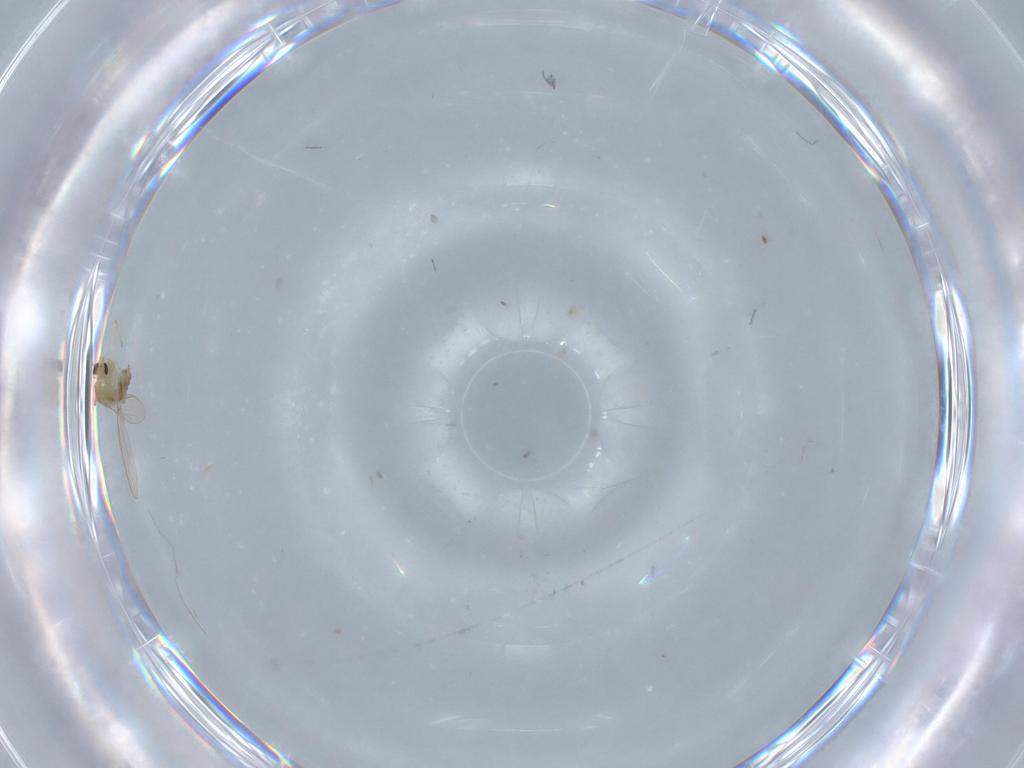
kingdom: Animalia
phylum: Arthropoda
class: Insecta
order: Diptera
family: Chironomidae
